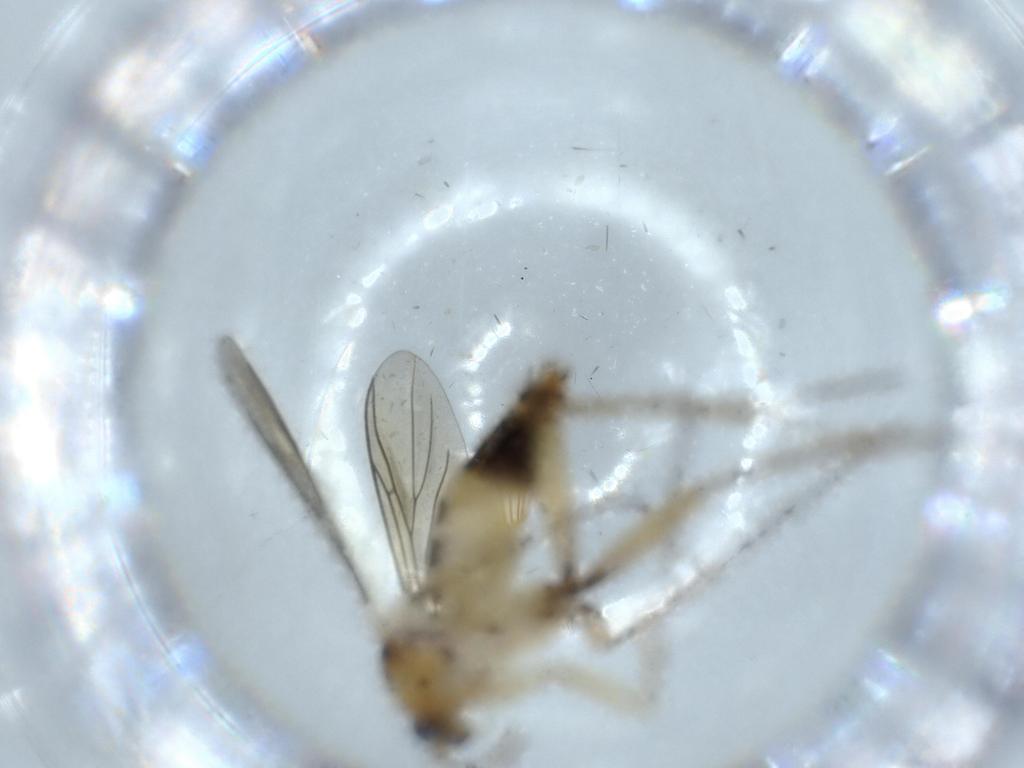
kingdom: Animalia
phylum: Arthropoda
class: Insecta
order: Diptera
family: Mycetophilidae
